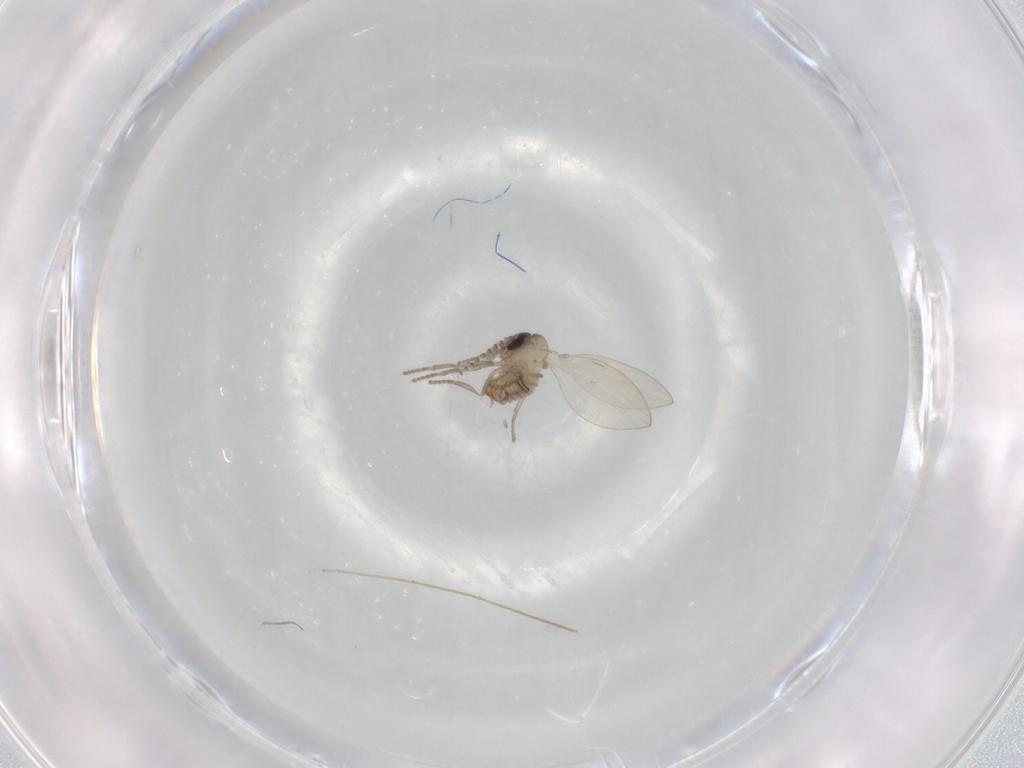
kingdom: Animalia
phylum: Arthropoda
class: Insecta
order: Diptera
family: Psychodidae
